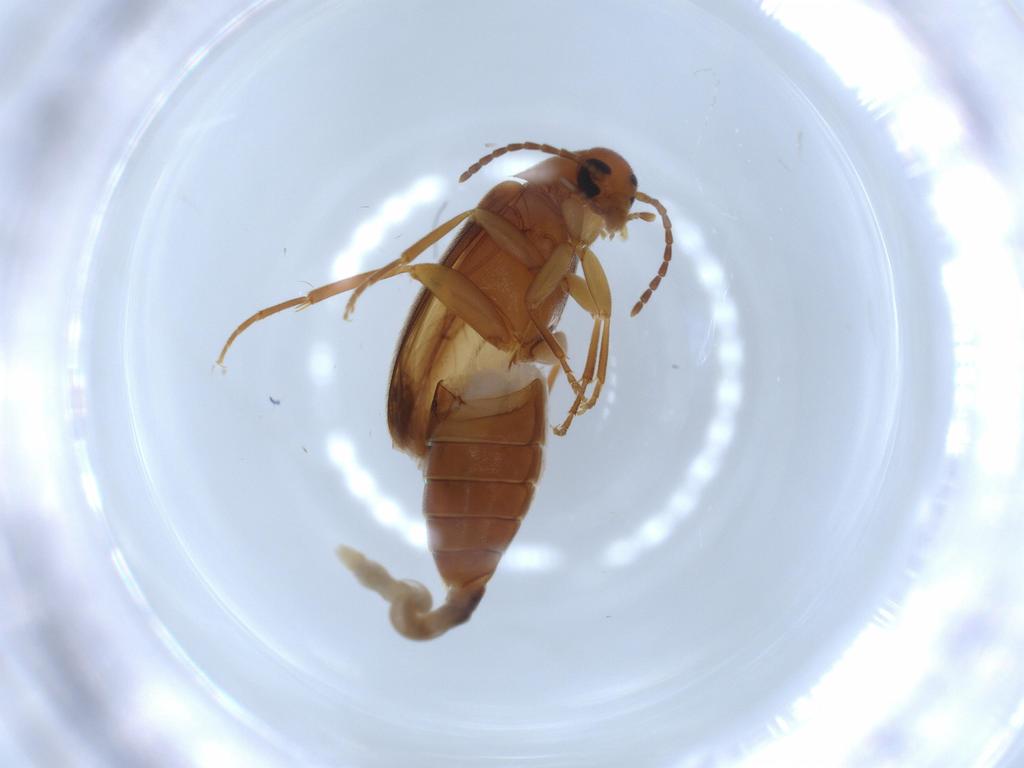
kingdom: Animalia
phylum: Arthropoda
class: Insecta
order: Coleoptera
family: Scraptiidae
